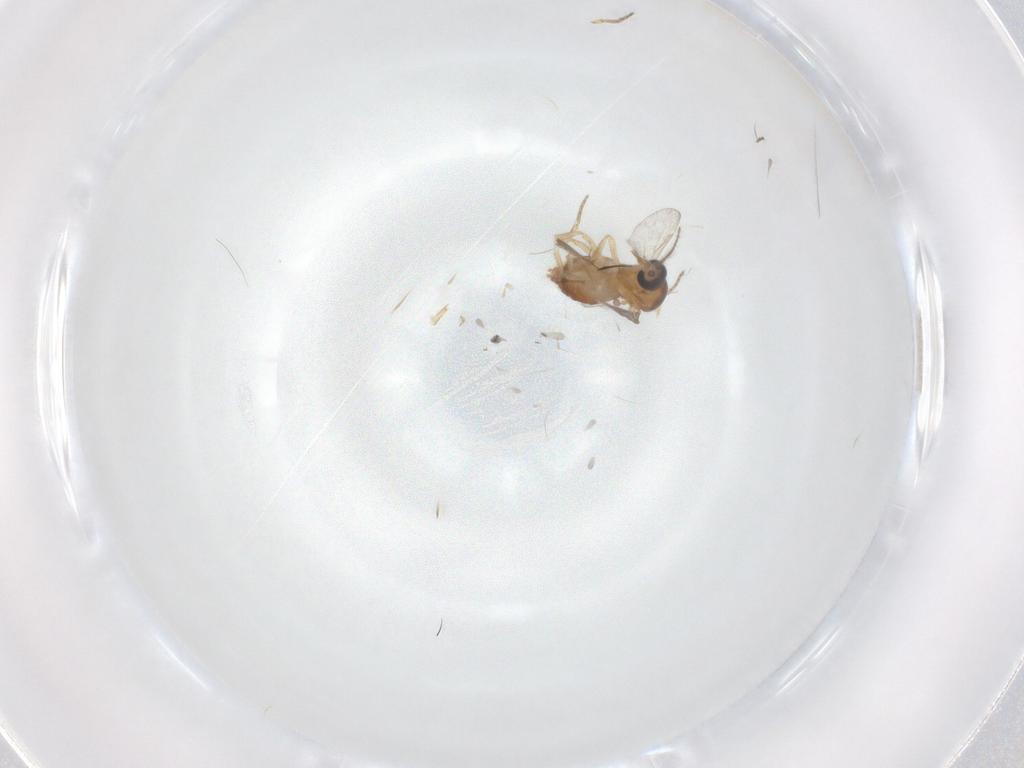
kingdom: Animalia
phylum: Arthropoda
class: Insecta
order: Diptera
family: Ceratopogonidae
